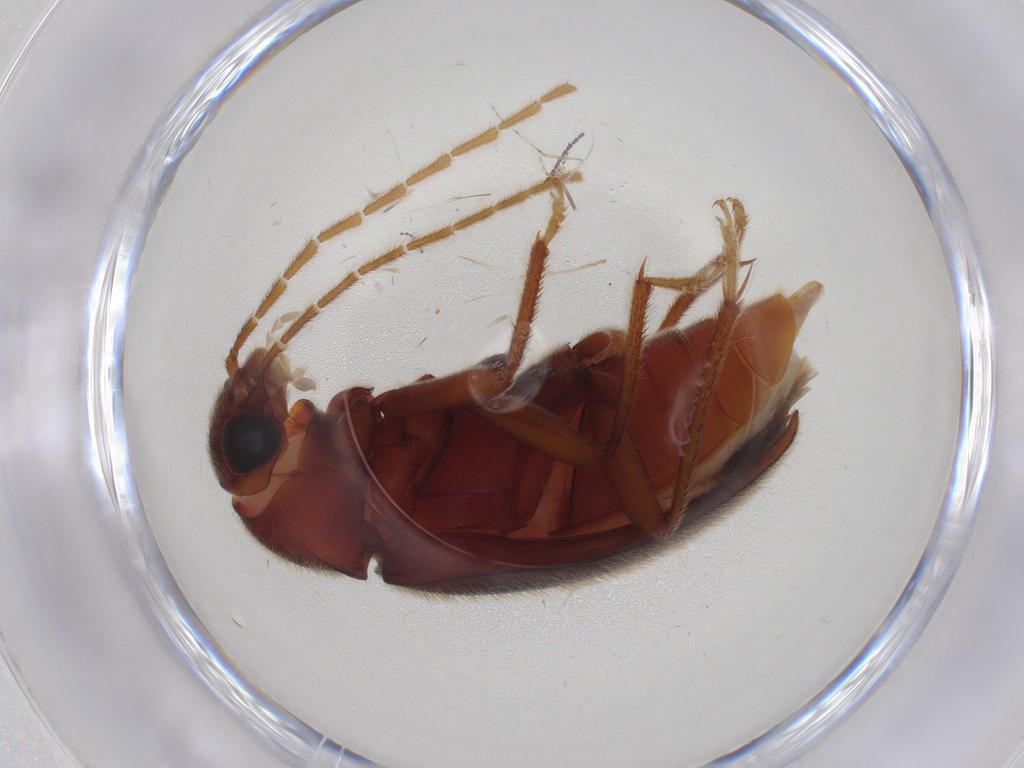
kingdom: Animalia
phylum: Arthropoda
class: Insecta
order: Coleoptera
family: Ptilodactylidae
